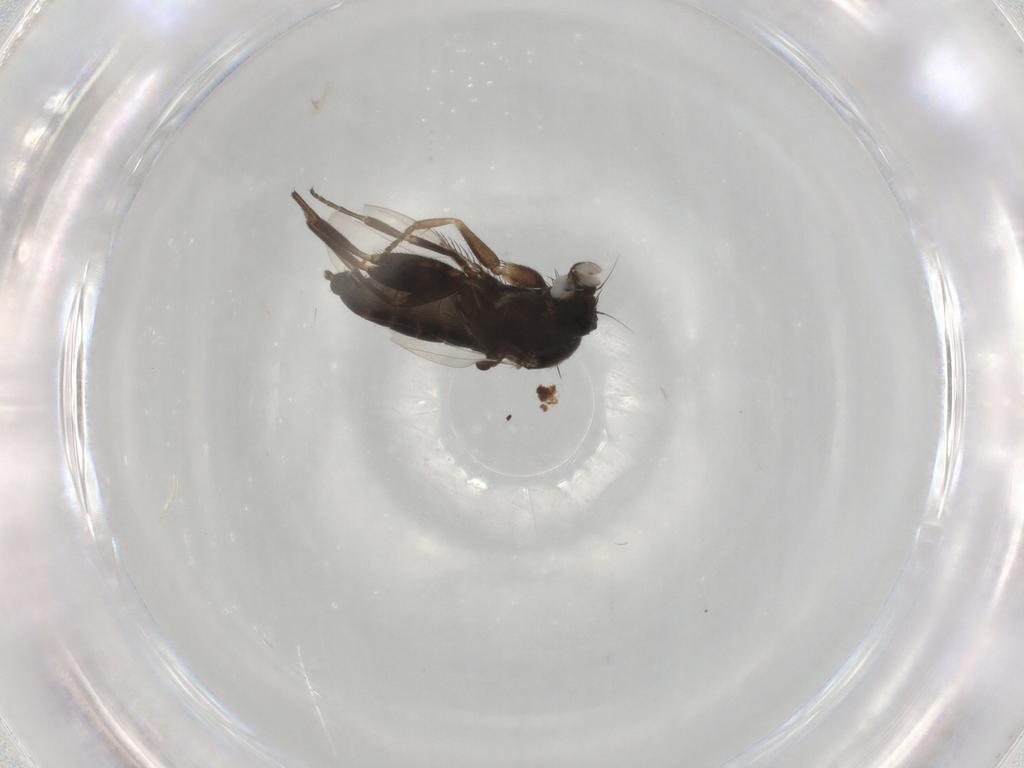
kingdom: Animalia
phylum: Arthropoda
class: Insecta
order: Diptera
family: Phoridae
